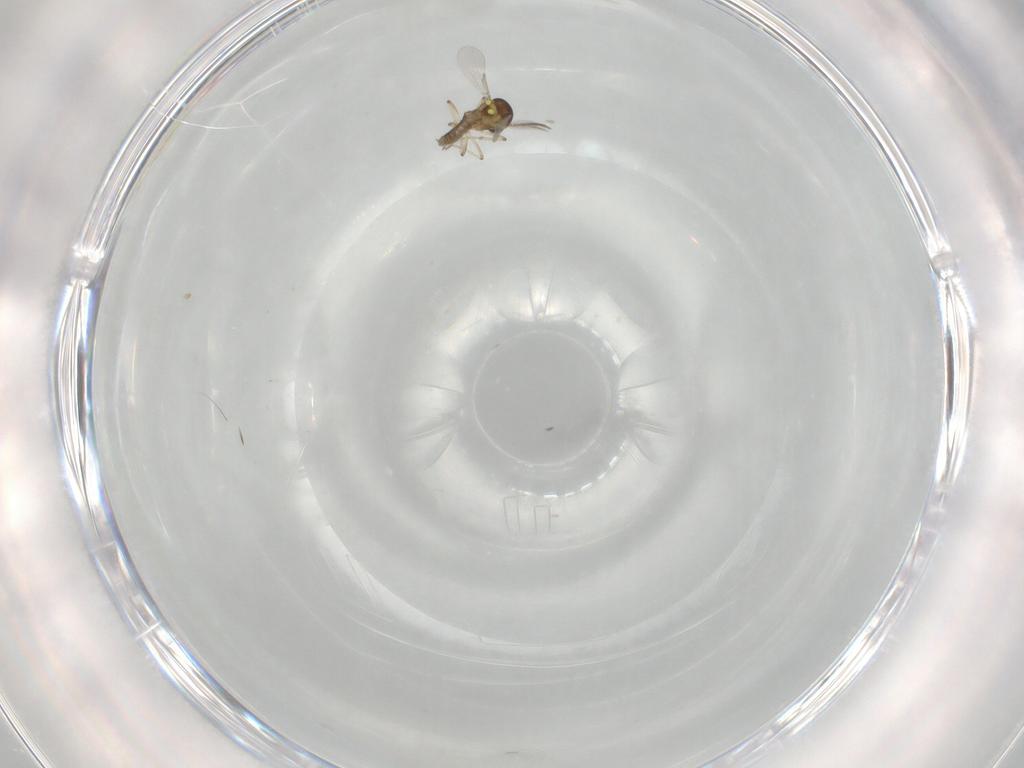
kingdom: Animalia
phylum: Arthropoda
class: Insecta
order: Diptera
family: Ceratopogonidae
